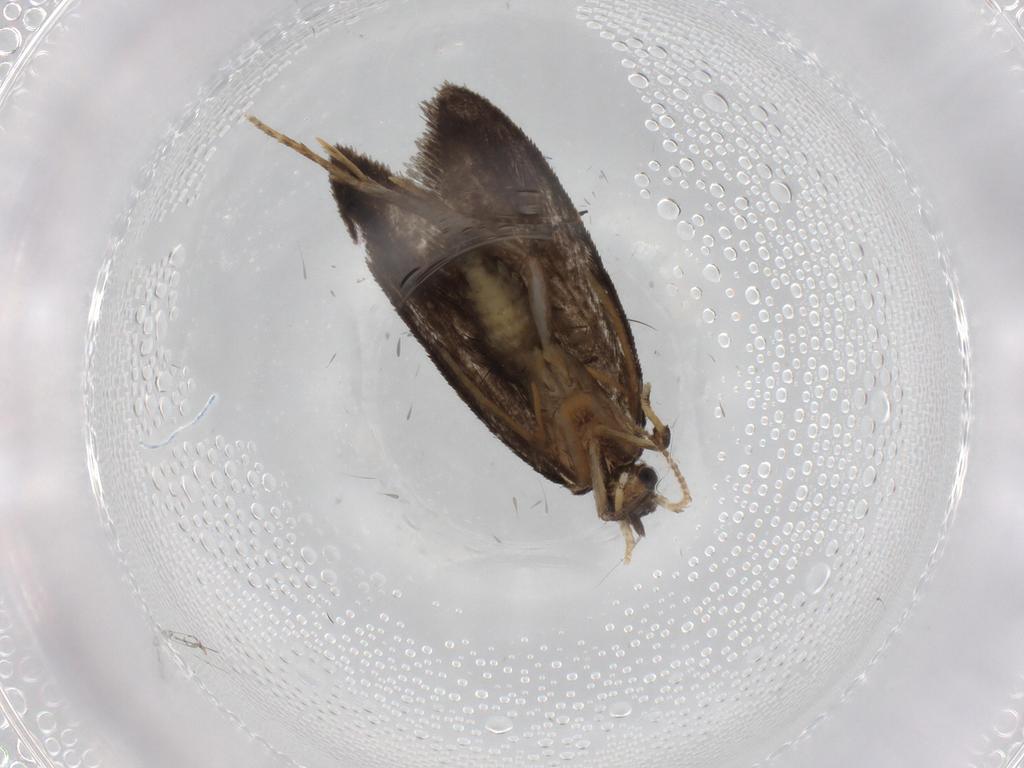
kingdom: Animalia
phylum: Arthropoda
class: Insecta
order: Lepidoptera
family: Psychidae
